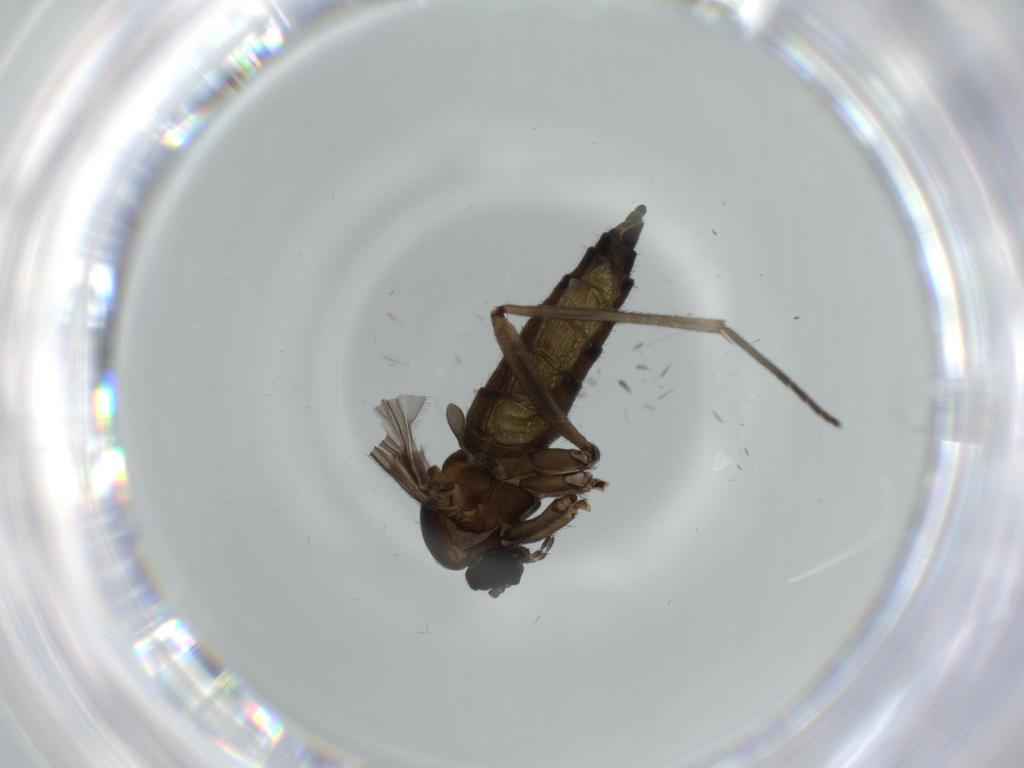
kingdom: Animalia
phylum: Arthropoda
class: Insecta
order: Diptera
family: Sciaridae
